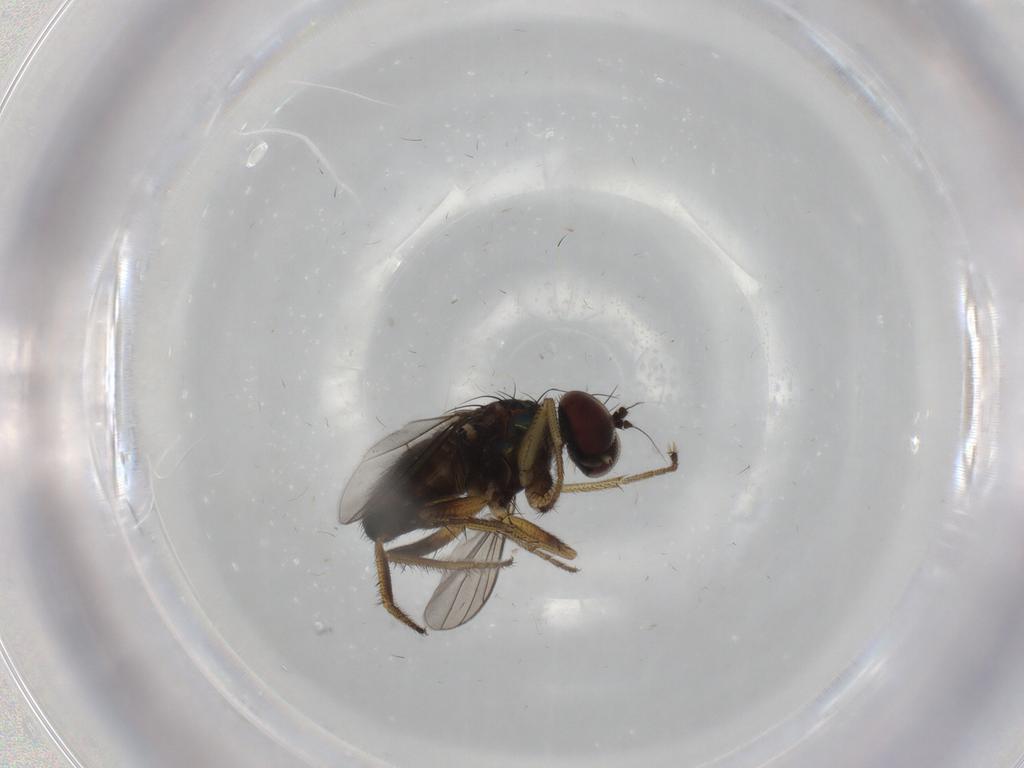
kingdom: Animalia
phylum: Arthropoda
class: Insecta
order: Diptera
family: Dolichopodidae
